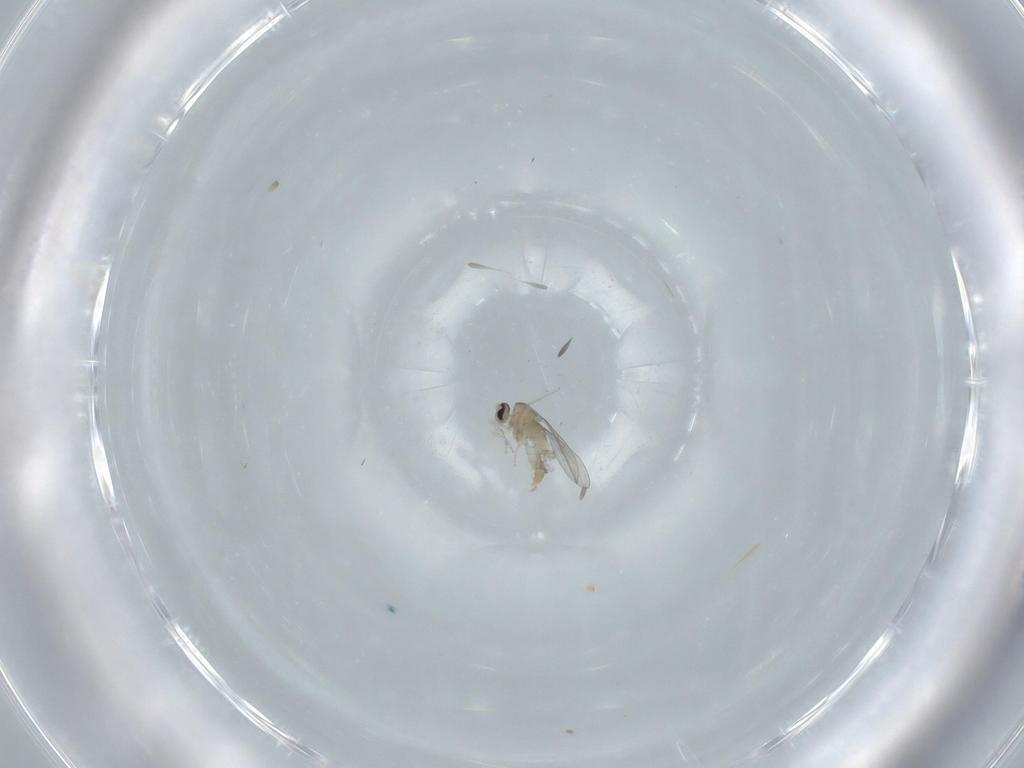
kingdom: Animalia
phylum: Arthropoda
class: Insecta
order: Diptera
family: Cecidomyiidae
